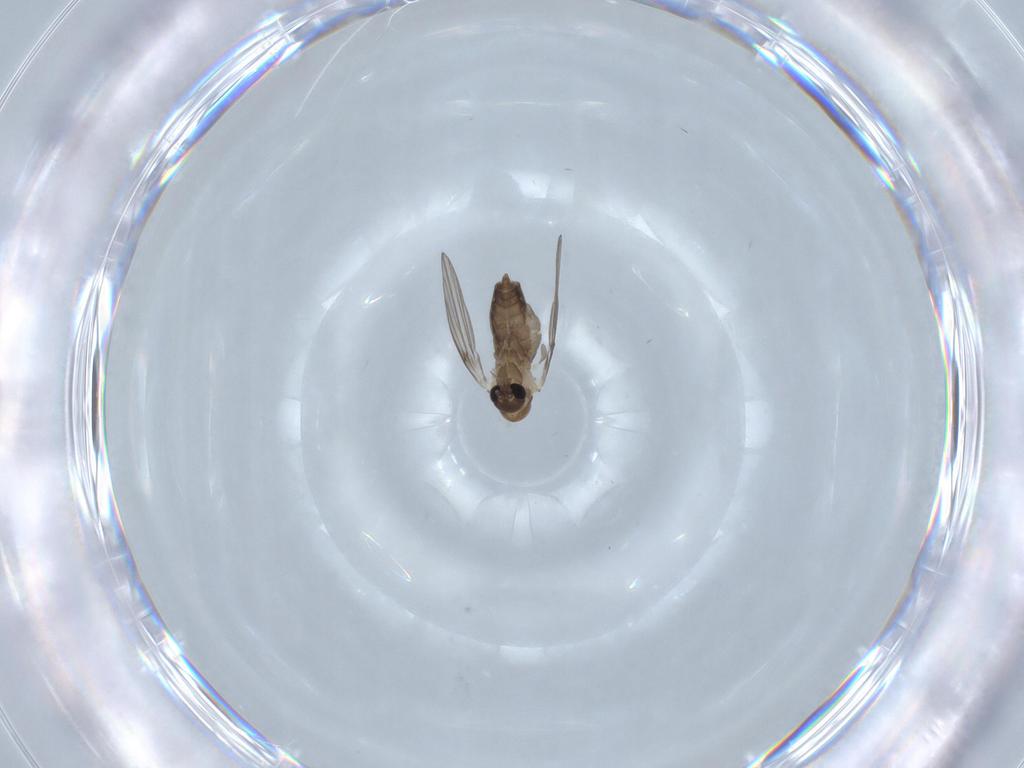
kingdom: Animalia
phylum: Arthropoda
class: Insecta
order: Diptera
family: Psychodidae
